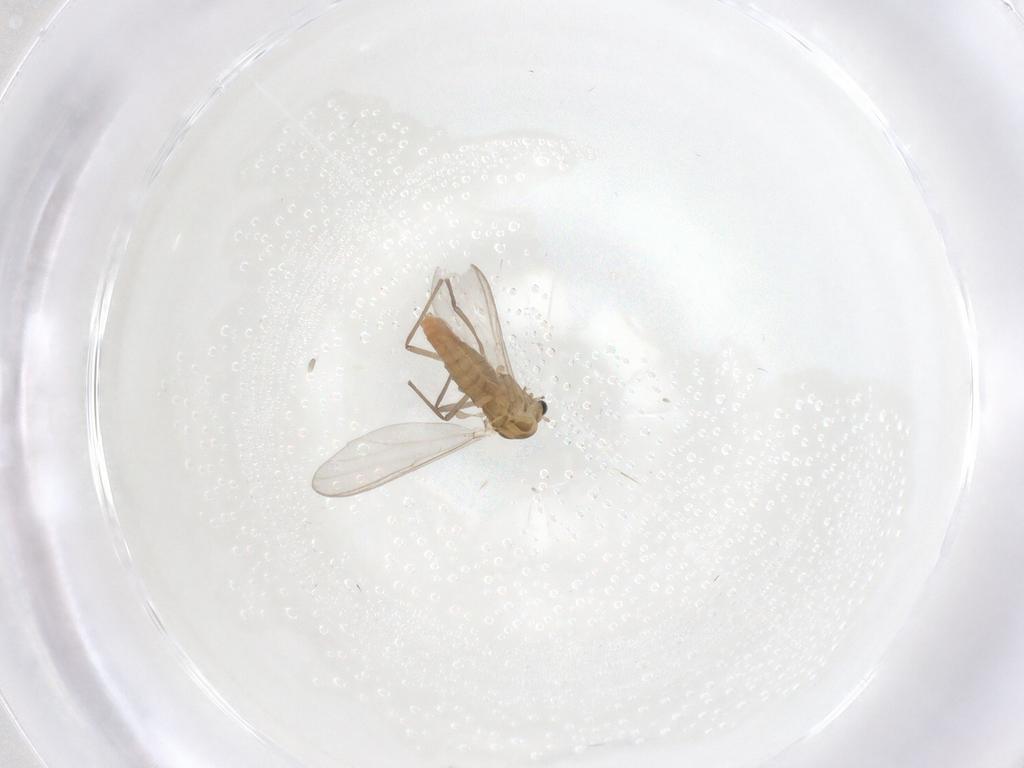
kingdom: Animalia
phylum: Arthropoda
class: Insecta
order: Diptera
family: Chironomidae
